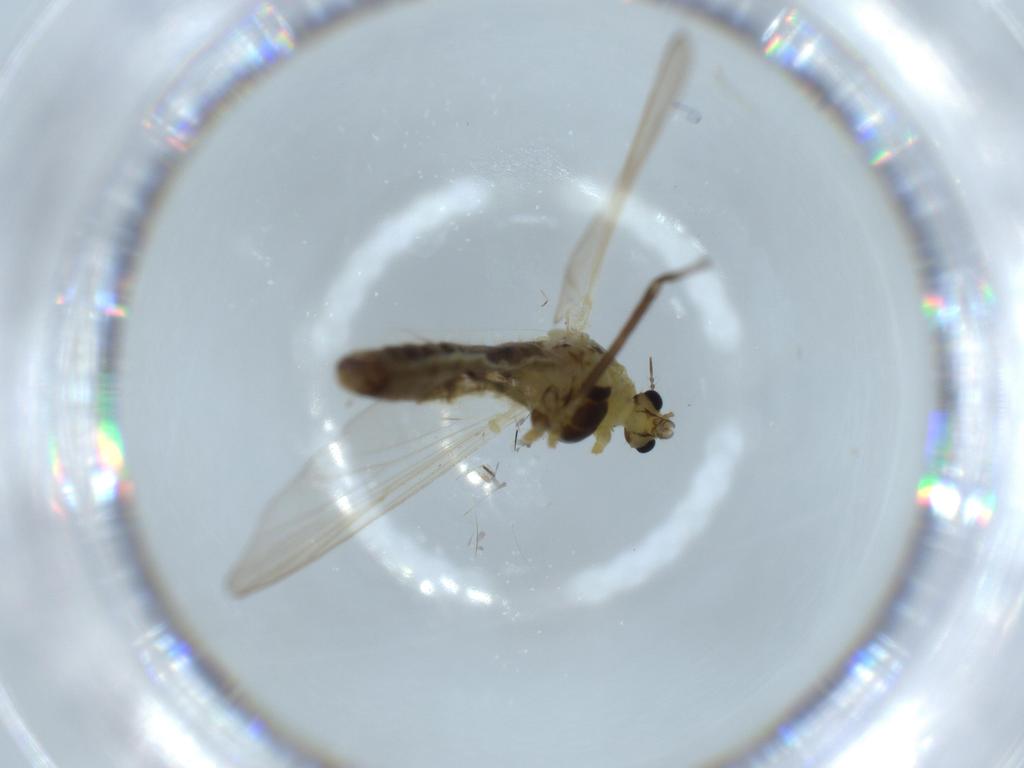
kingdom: Animalia
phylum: Arthropoda
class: Insecta
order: Diptera
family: Chironomidae
